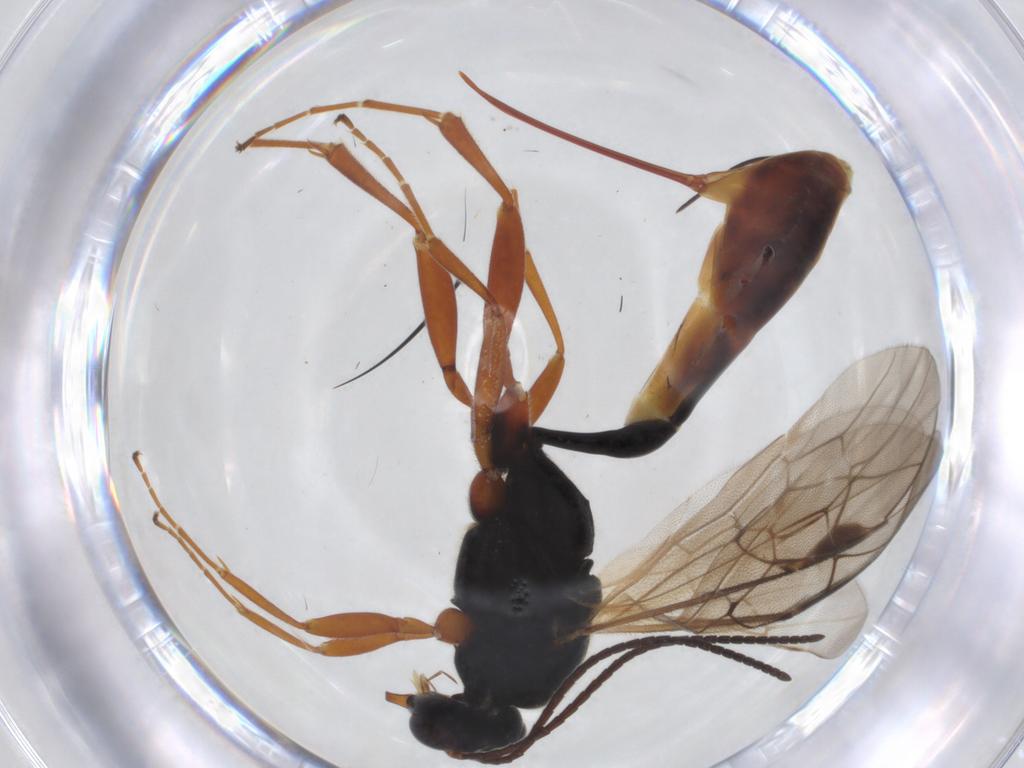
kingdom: Animalia
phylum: Arthropoda
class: Insecta
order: Hymenoptera
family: Ichneumonidae
